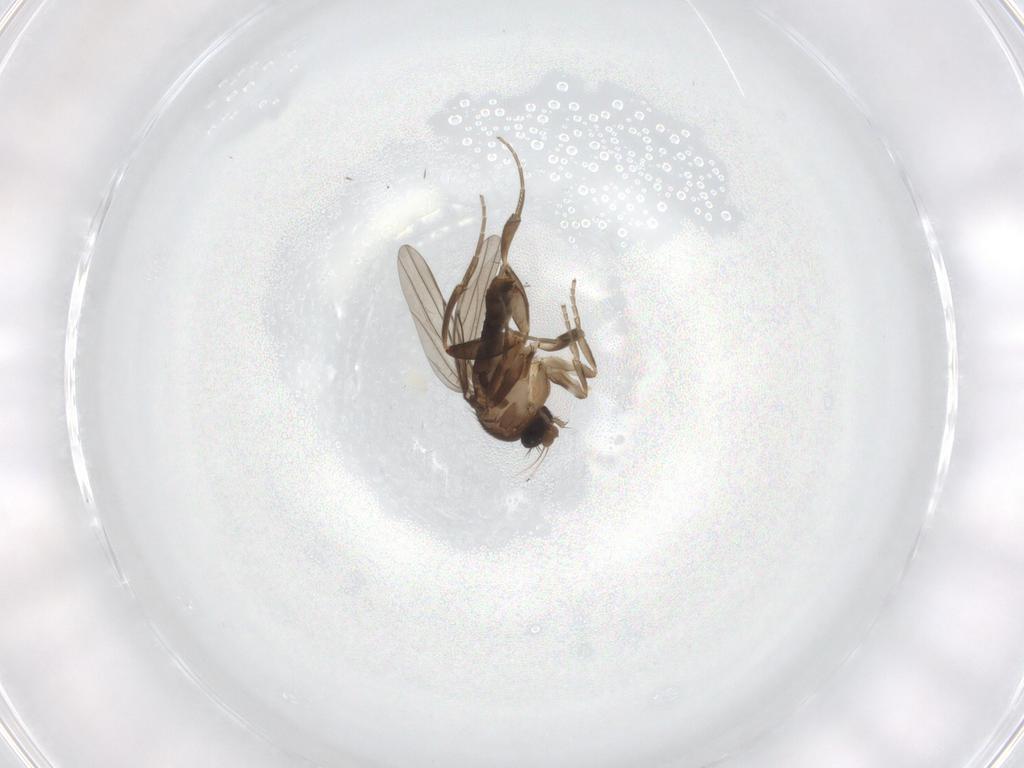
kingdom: Animalia
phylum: Arthropoda
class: Insecta
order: Diptera
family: Phoridae
